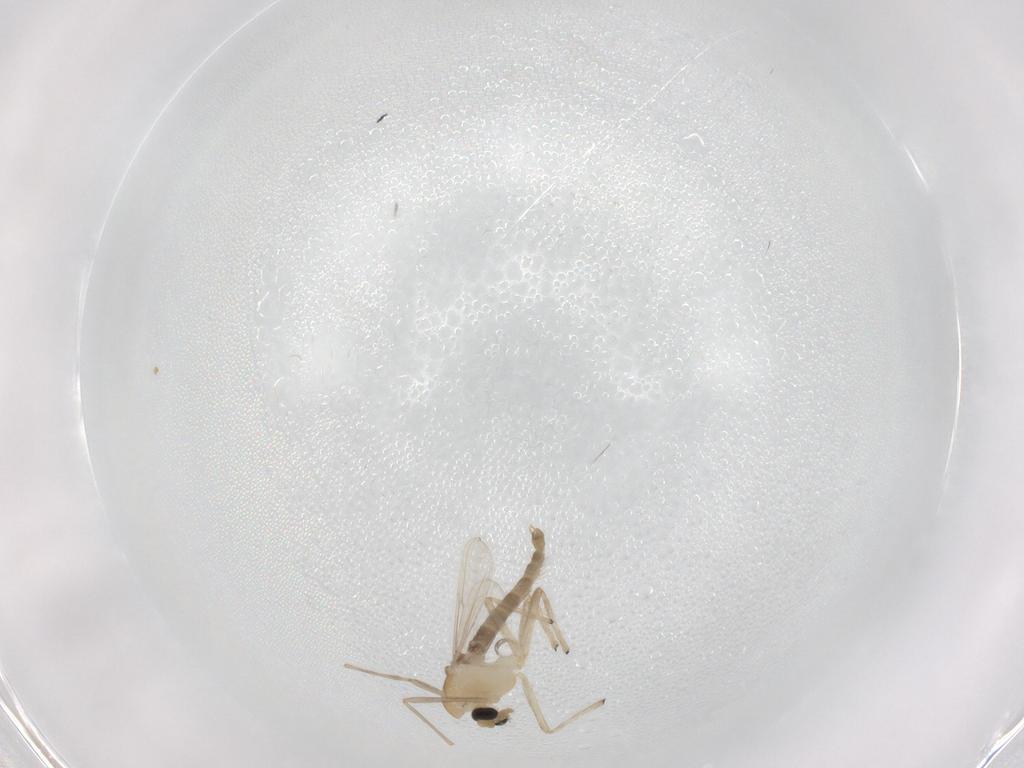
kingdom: Animalia
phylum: Arthropoda
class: Insecta
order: Diptera
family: Chironomidae
